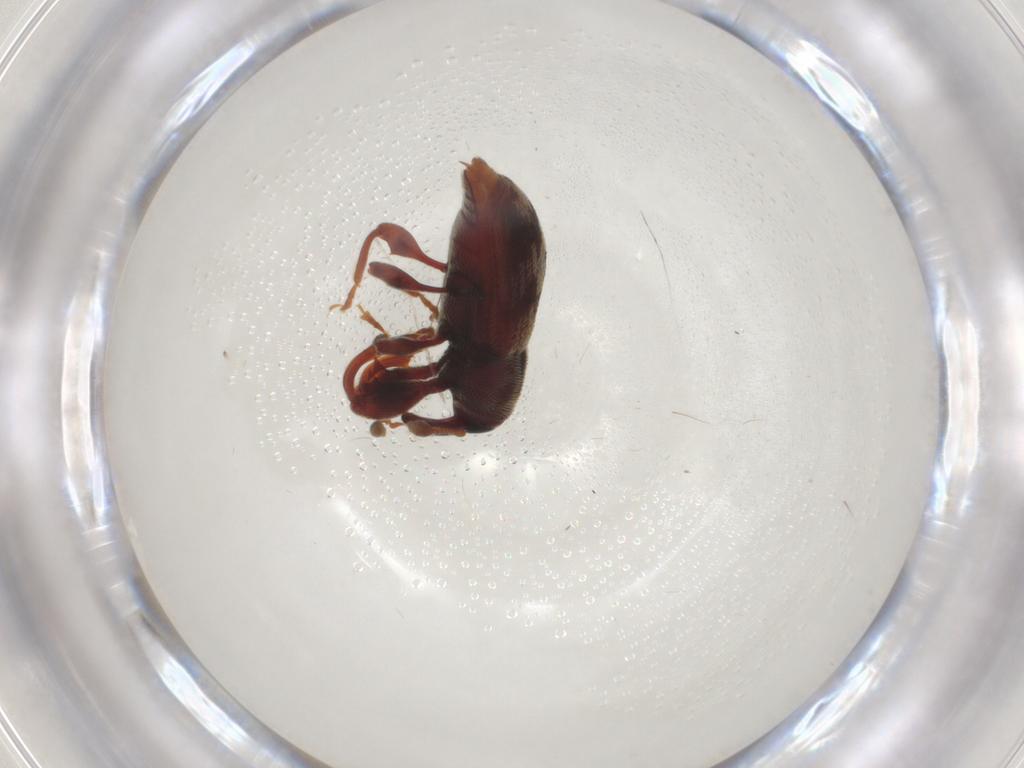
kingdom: Animalia
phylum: Arthropoda
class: Insecta
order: Coleoptera
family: Curculionidae
